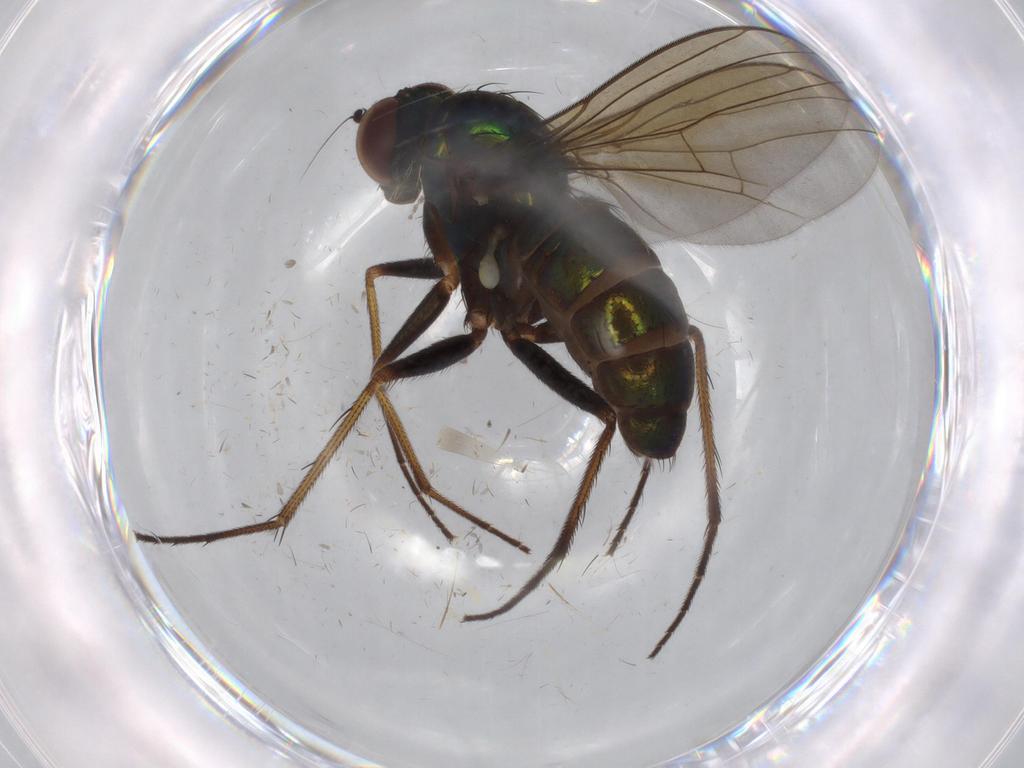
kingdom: Animalia
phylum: Arthropoda
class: Insecta
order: Diptera
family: Dolichopodidae
